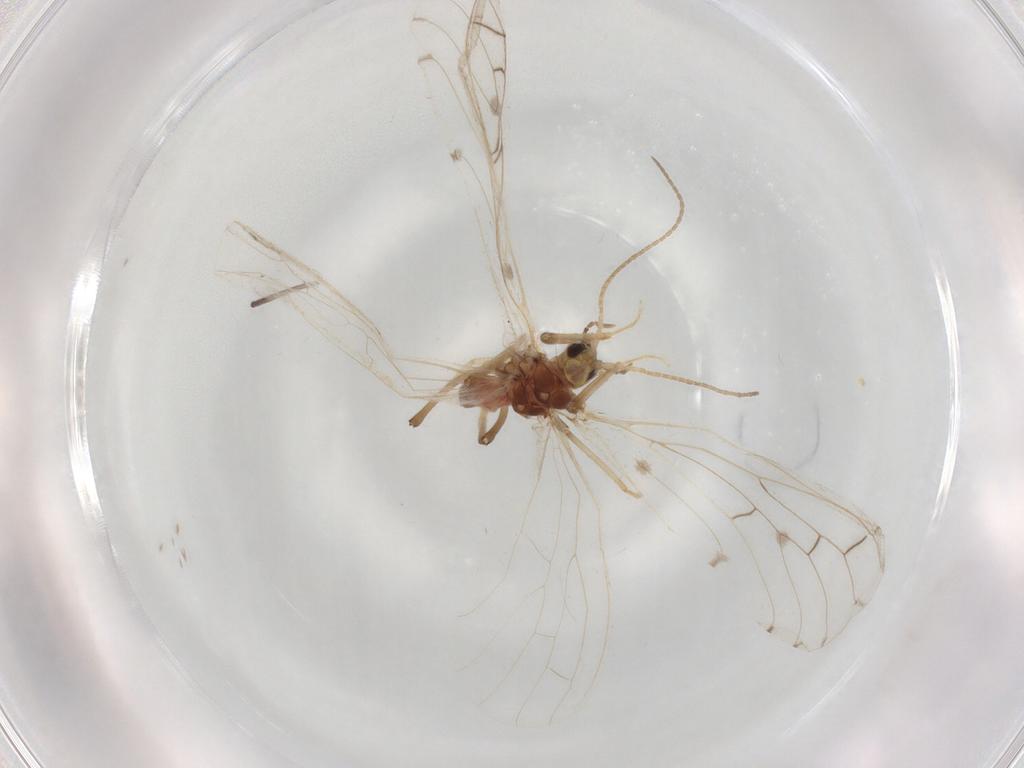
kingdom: Animalia
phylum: Arthropoda
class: Insecta
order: Neuroptera
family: Coniopterygidae
